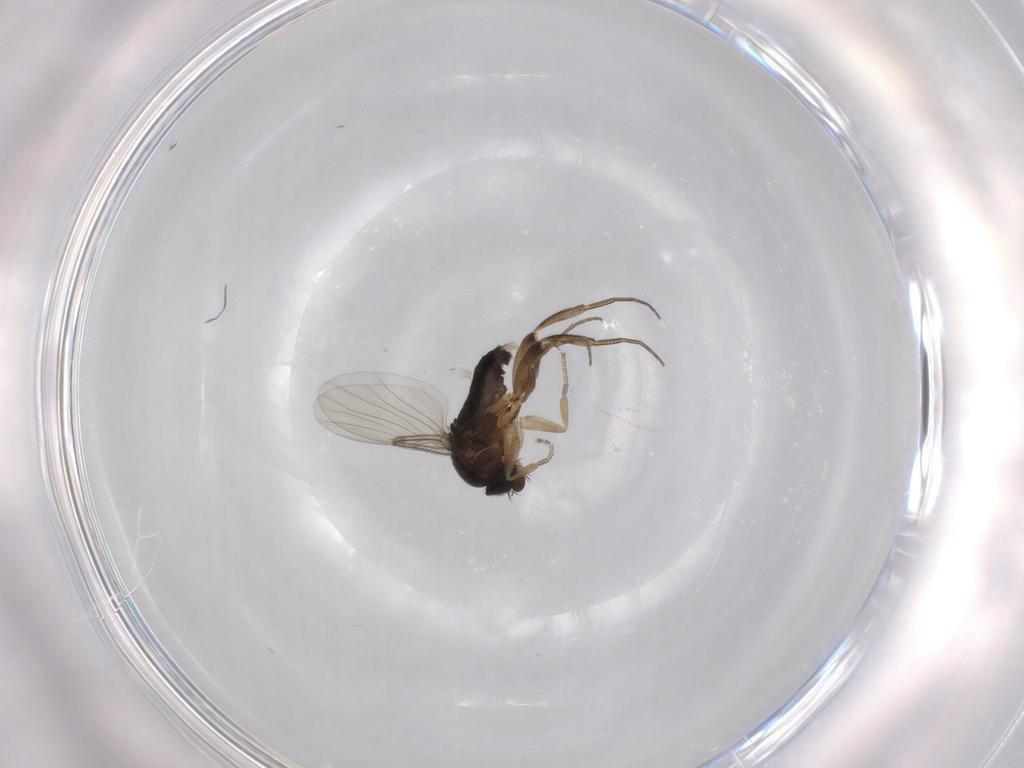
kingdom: Animalia
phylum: Arthropoda
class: Insecta
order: Diptera
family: Phoridae
